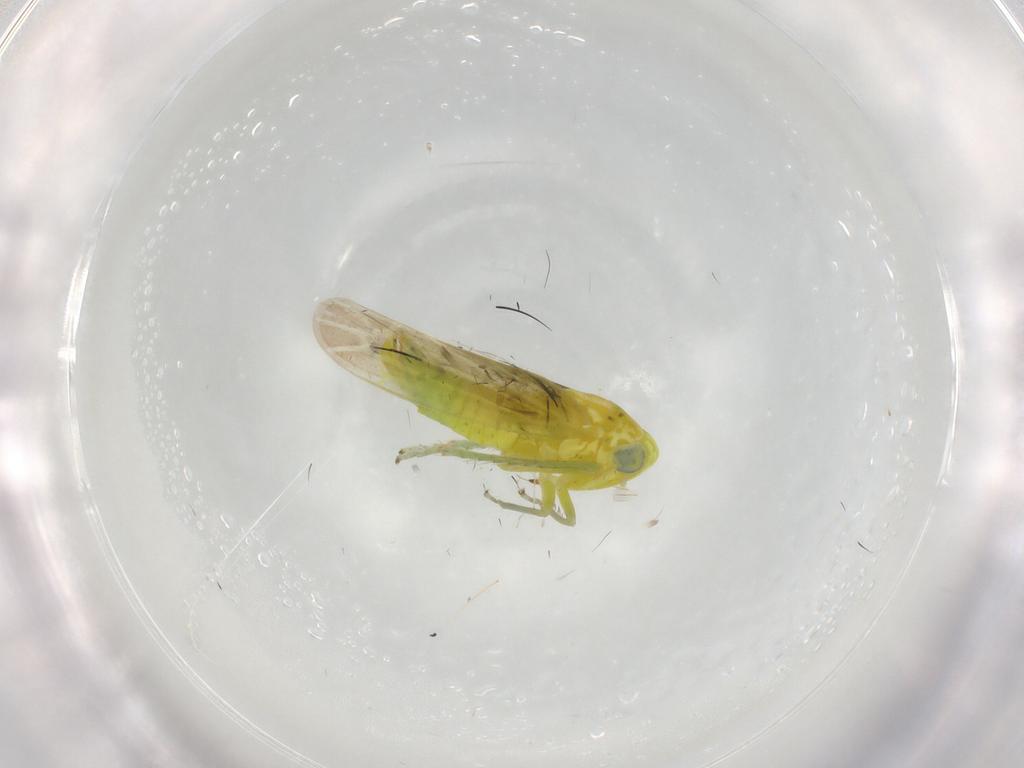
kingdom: Animalia
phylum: Arthropoda
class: Insecta
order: Hemiptera
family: Cicadellidae
